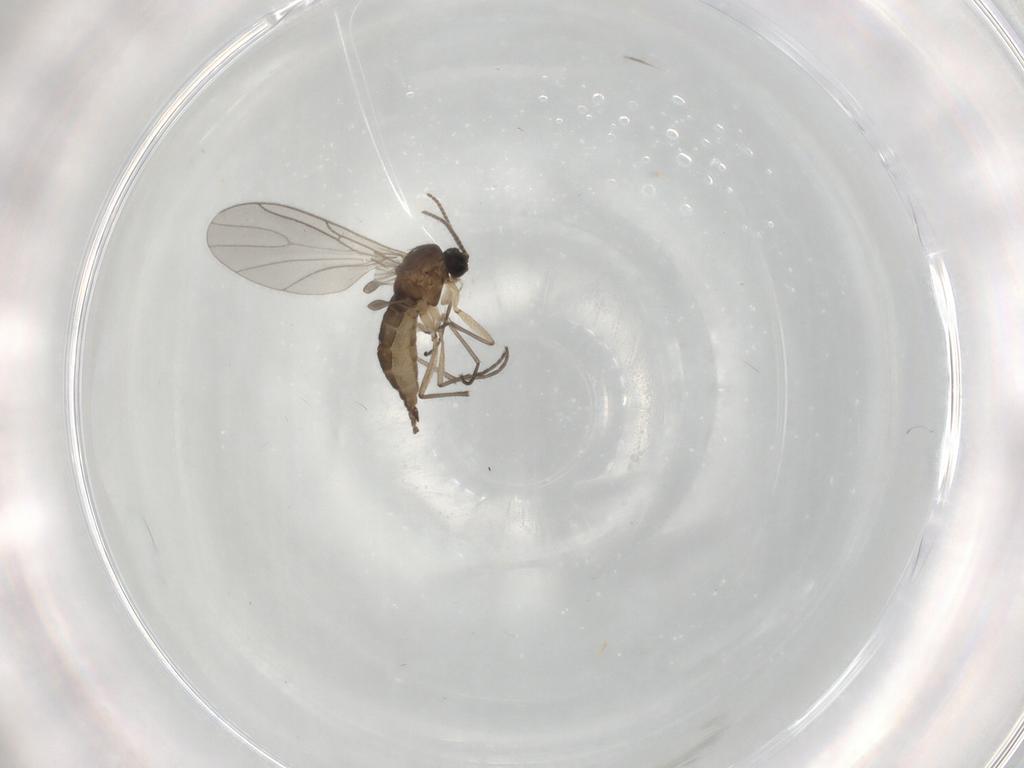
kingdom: Animalia
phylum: Arthropoda
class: Insecta
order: Diptera
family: Sciaridae
